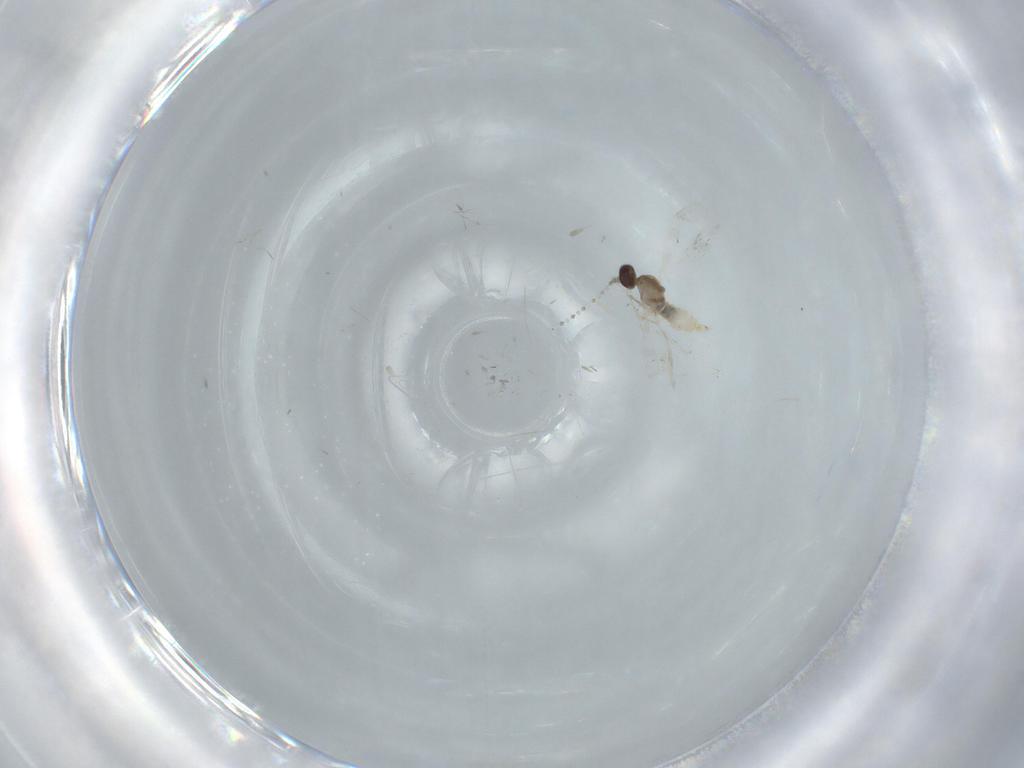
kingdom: Animalia
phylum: Arthropoda
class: Insecta
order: Diptera
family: Cecidomyiidae
